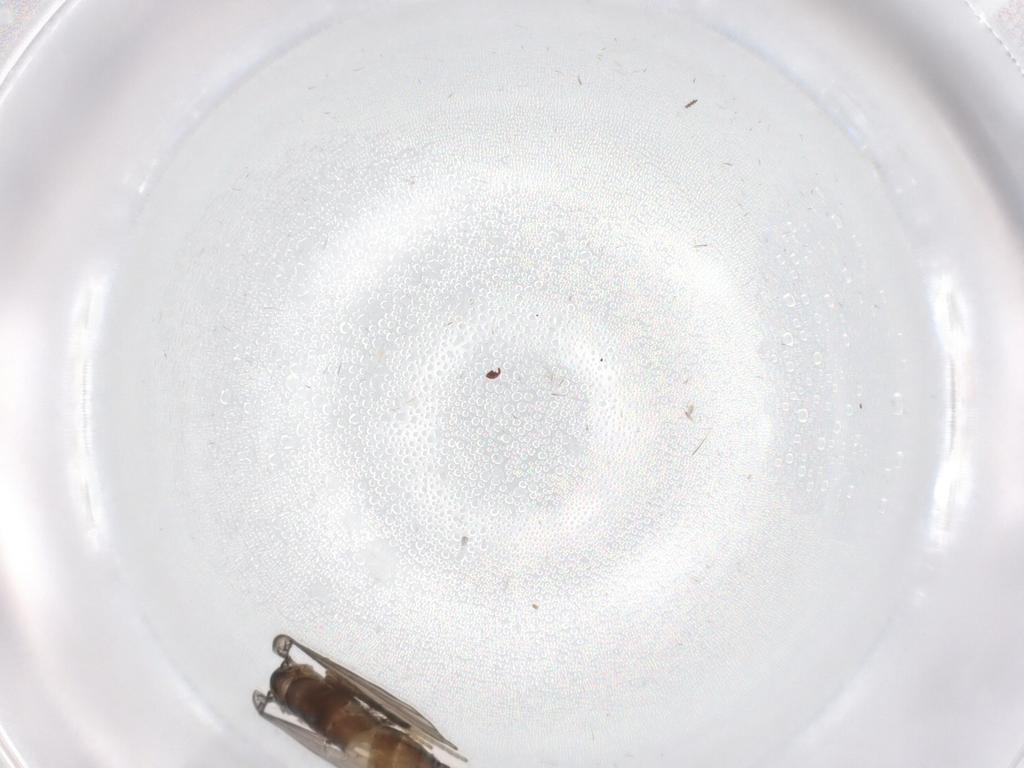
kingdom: Animalia
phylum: Arthropoda
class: Insecta
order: Diptera
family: Psychodidae
